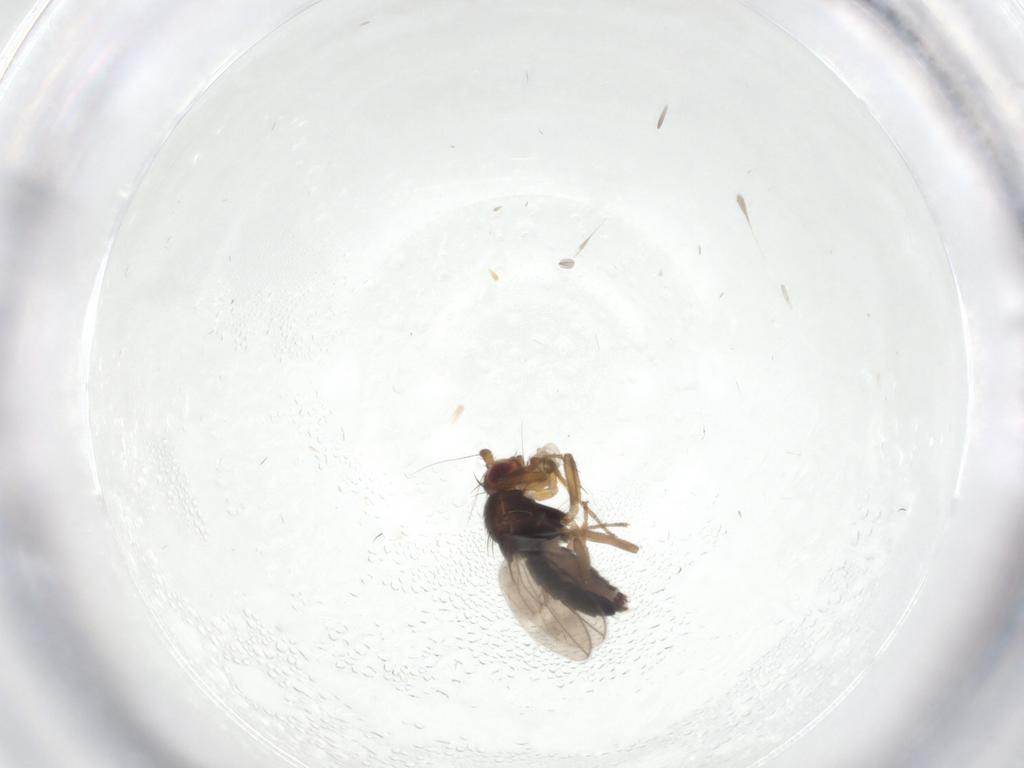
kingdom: Animalia
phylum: Arthropoda
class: Insecta
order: Diptera
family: Sphaeroceridae
